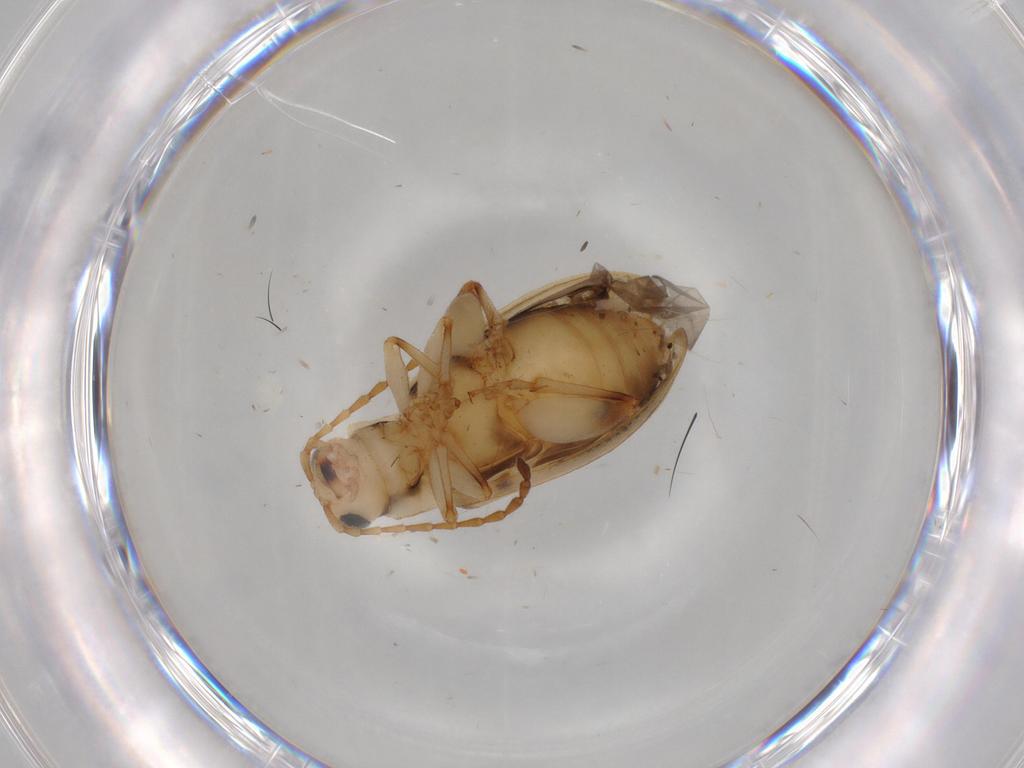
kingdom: Animalia
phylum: Arthropoda
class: Insecta
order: Coleoptera
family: Chrysomelidae
